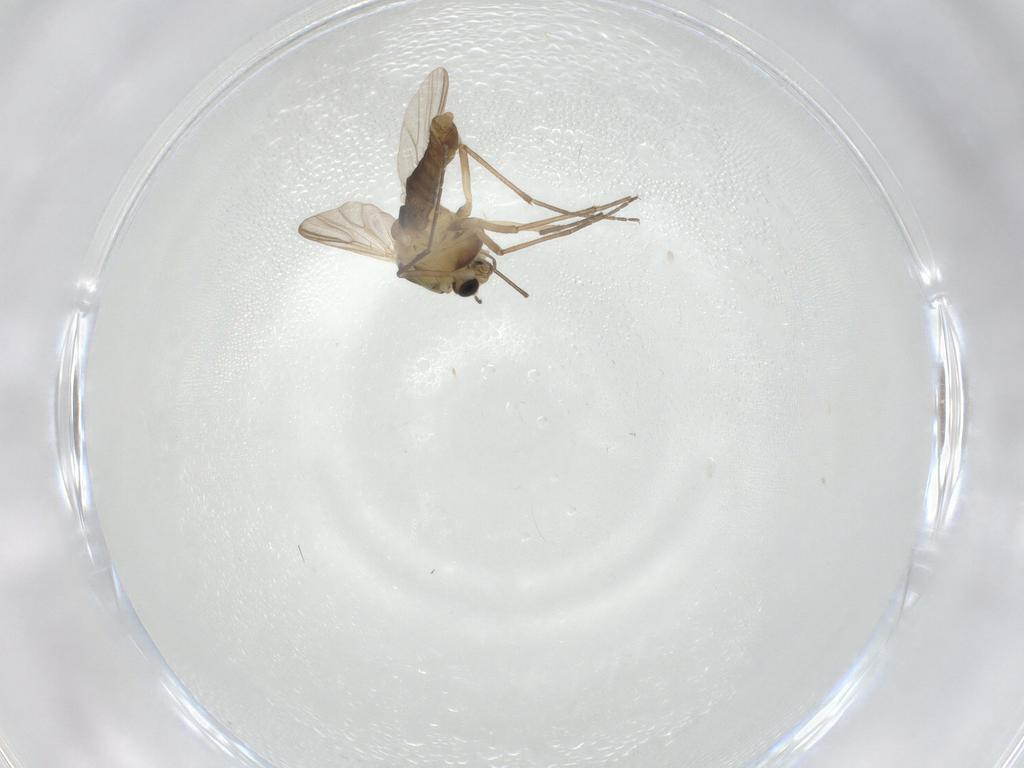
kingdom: Animalia
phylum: Arthropoda
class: Insecta
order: Diptera
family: Chironomidae
